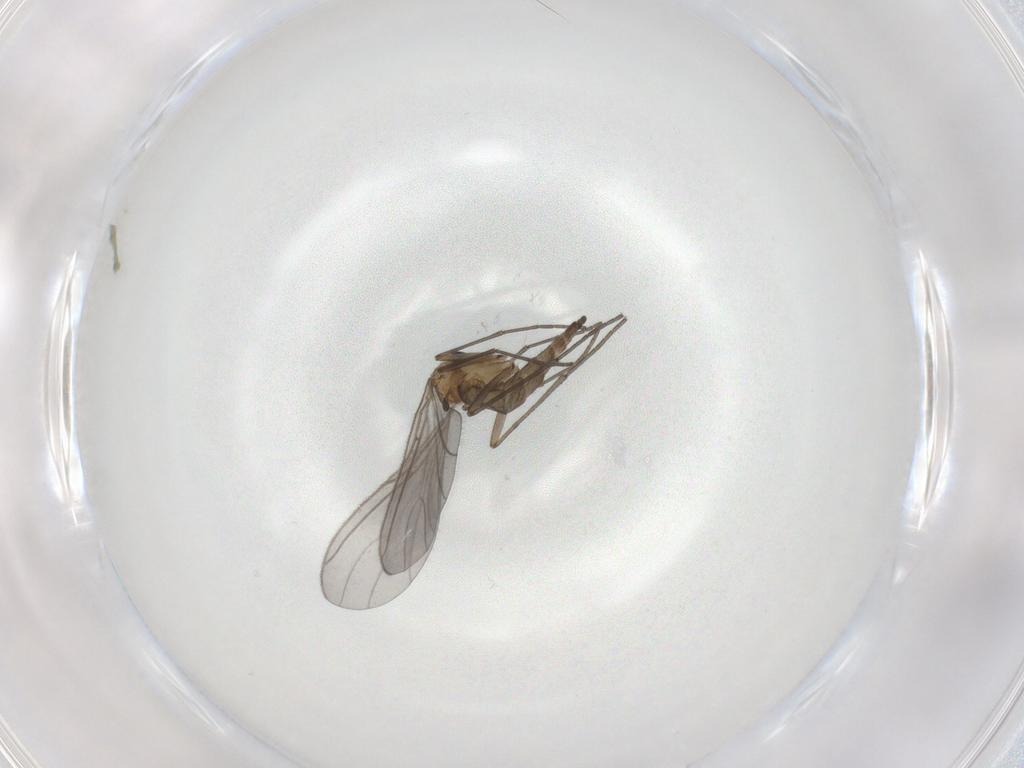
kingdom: Animalia
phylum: Arthropoda
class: Insecta
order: Diptera
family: Sciaridae
